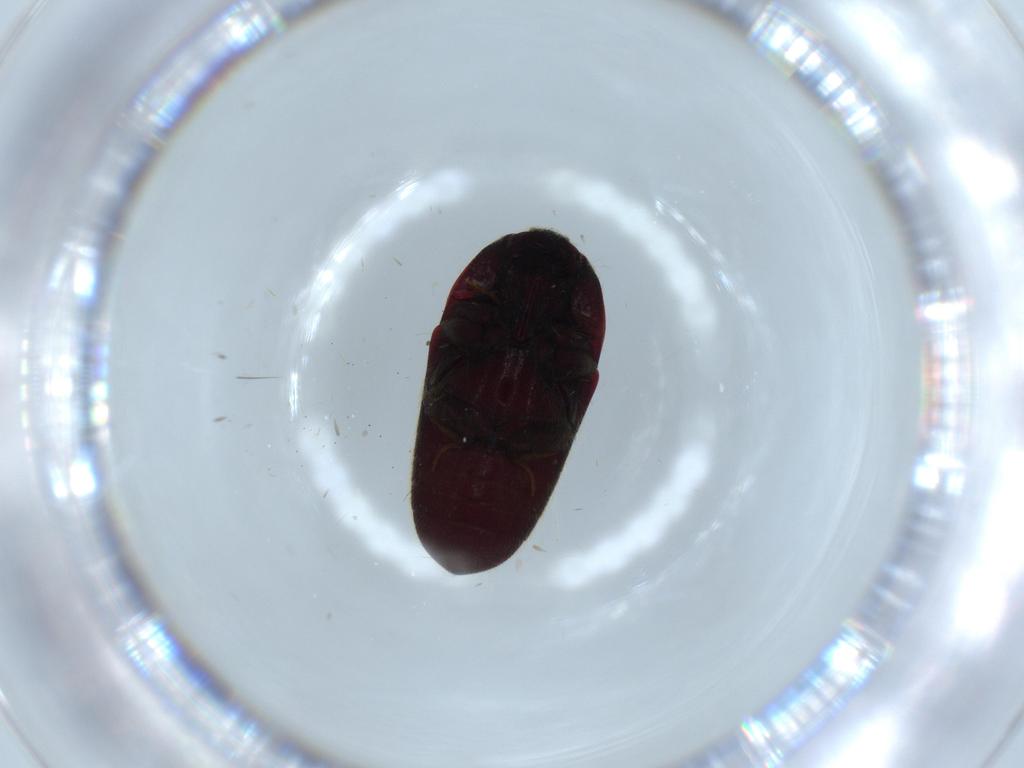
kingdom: Animalia
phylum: Arthropoda
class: Insecta
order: Coleoptera
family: Throscidae
